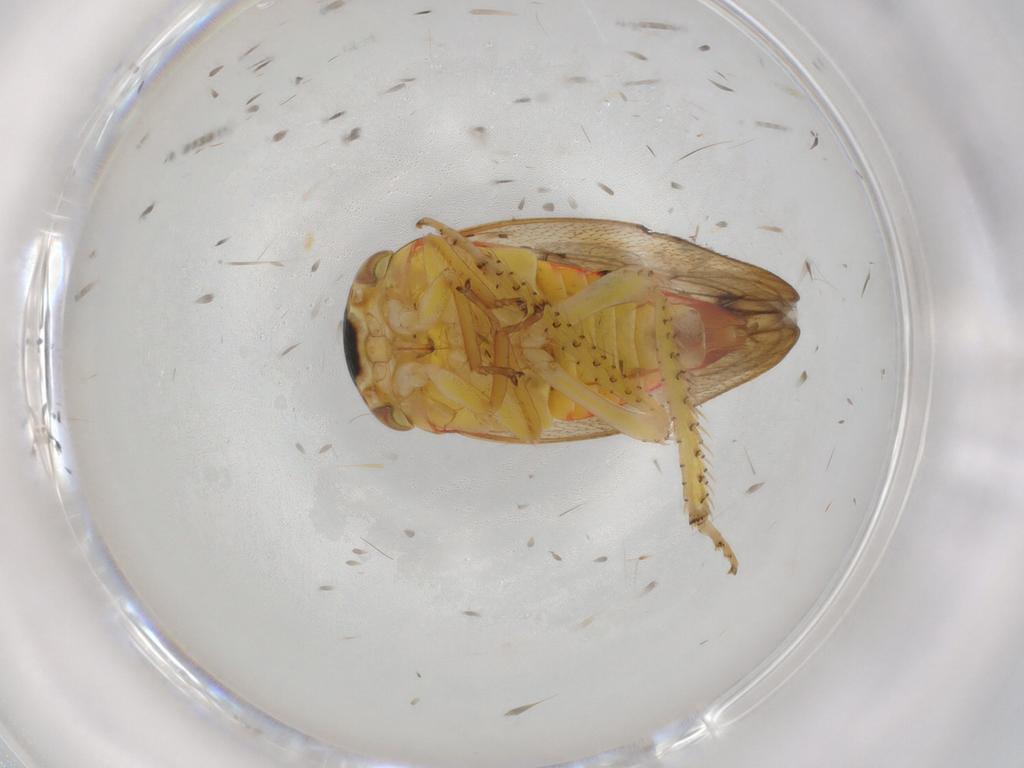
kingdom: Animalia
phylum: Arthropoda
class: Insecta
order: Hemiptera
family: Cicadellidae
